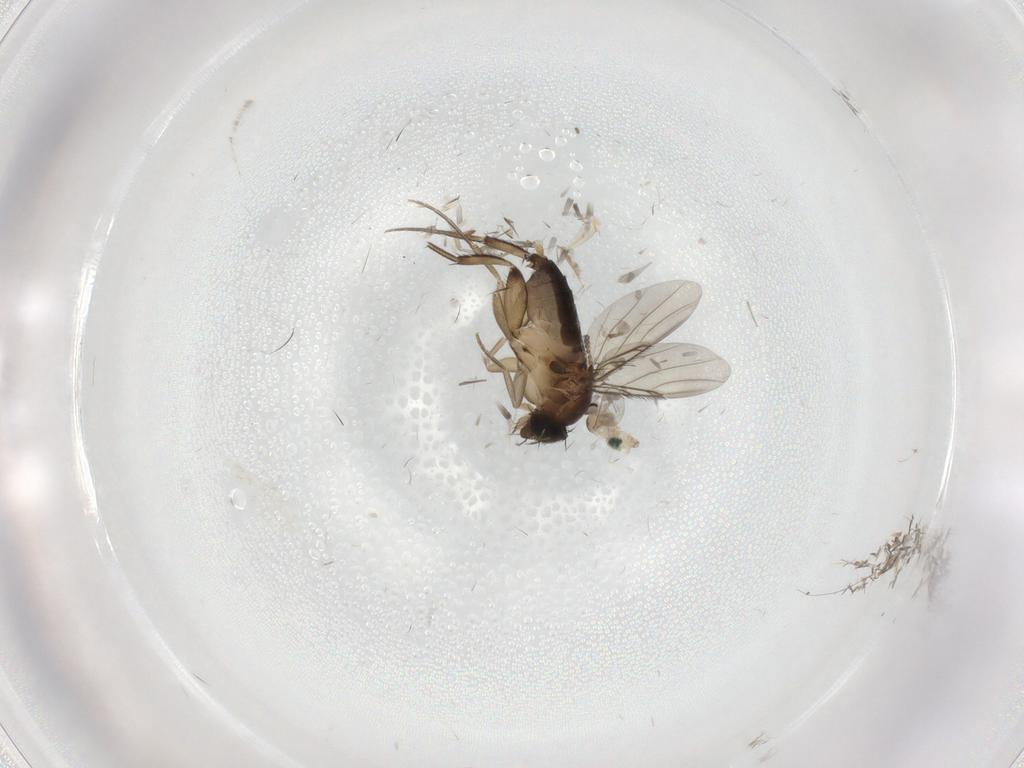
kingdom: Animalia
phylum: Arthropoda
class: Insecta
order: Diptera
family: Cecidomyiidae
